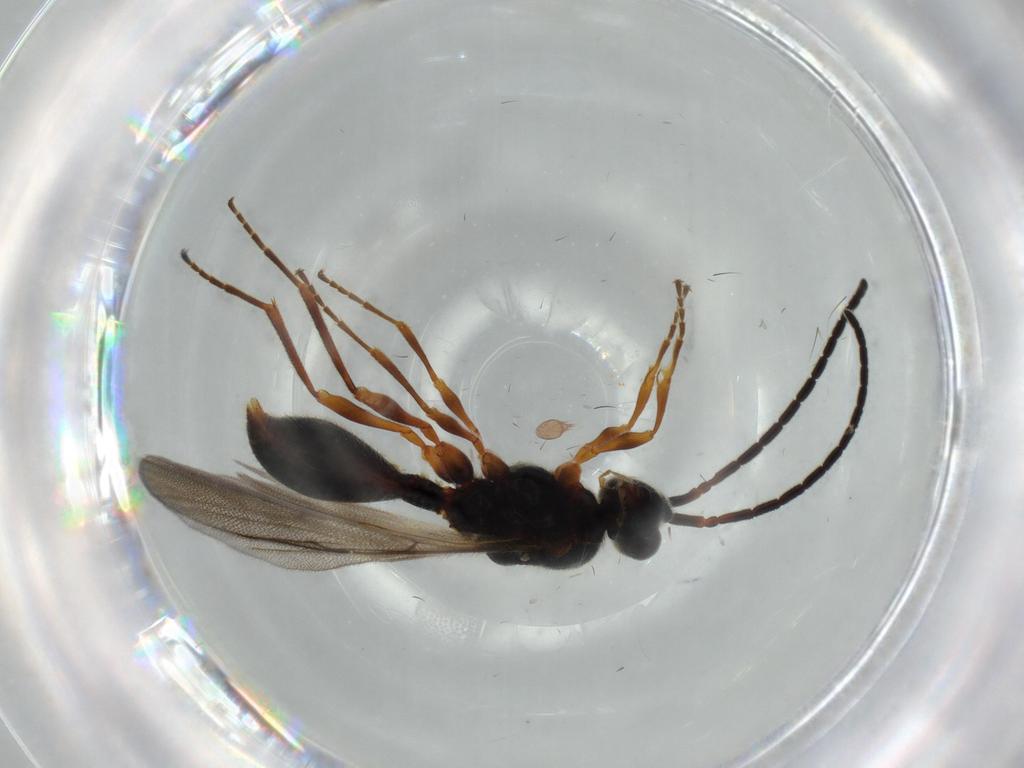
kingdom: Animalia
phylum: Arthropoda
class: Insecta
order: Hymenoptera
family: Diapriidae
